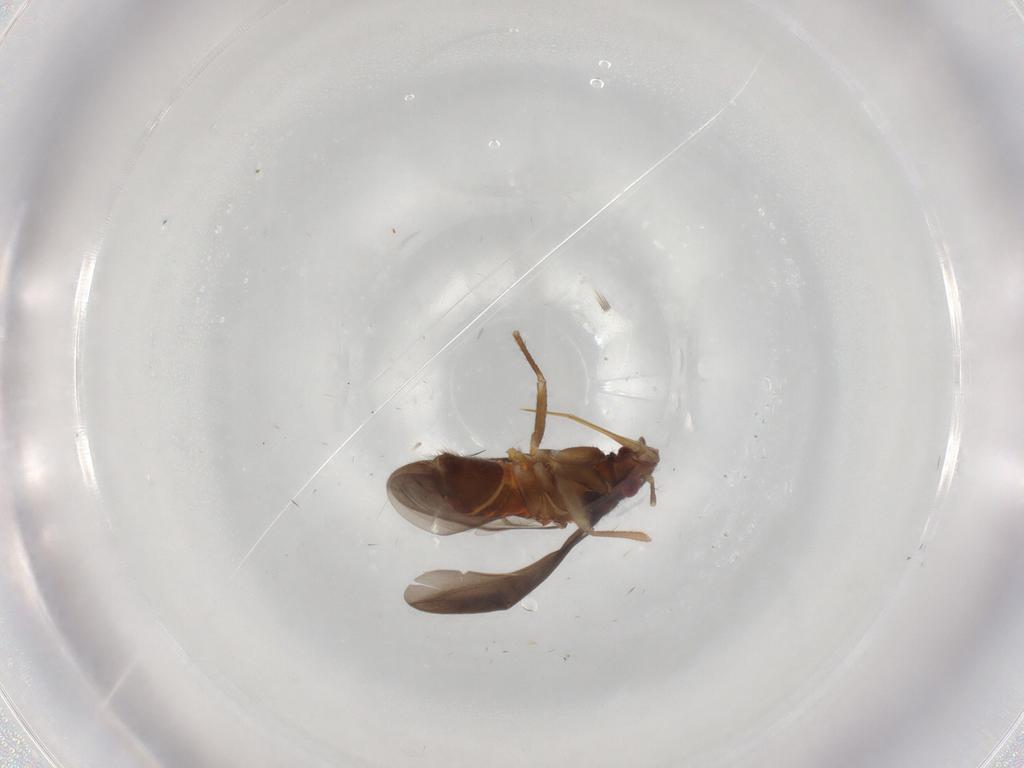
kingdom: Animalia
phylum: Arthropoda
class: Insecta
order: Hemiptera
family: Ceratocombidae
